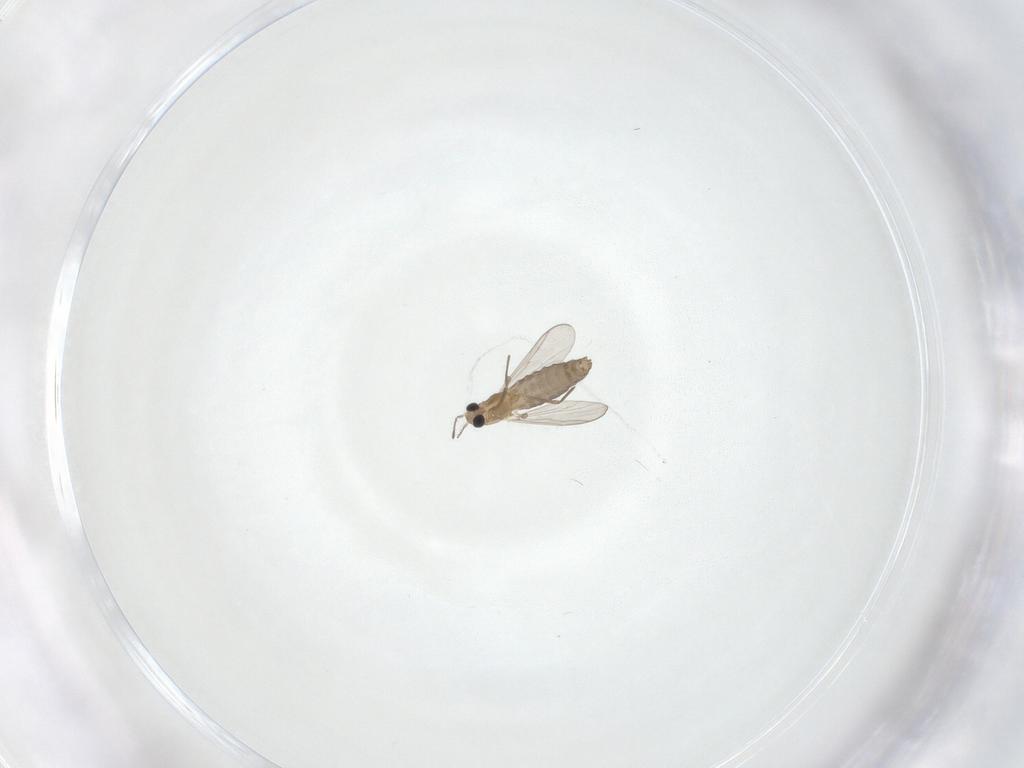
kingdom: Animalia
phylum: Arthropoda
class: Insecta
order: Diptera
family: Chironomidae
